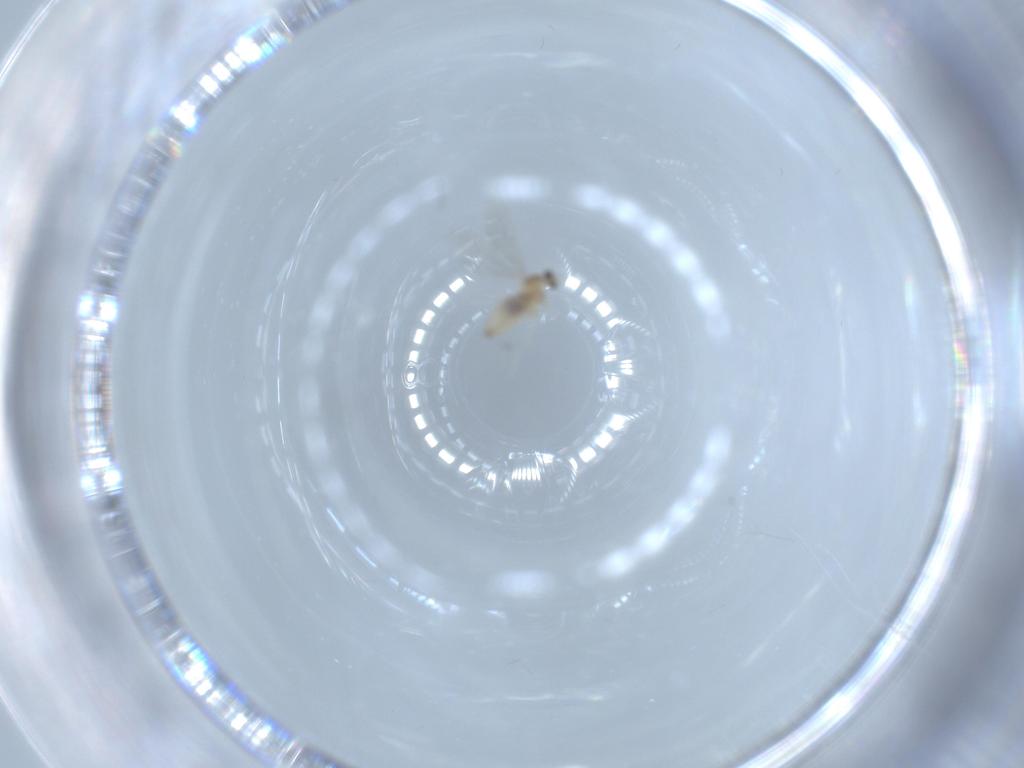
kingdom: Animalia
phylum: Arthropoda
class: Insecta
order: Diptera
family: Cecidomyiidae
